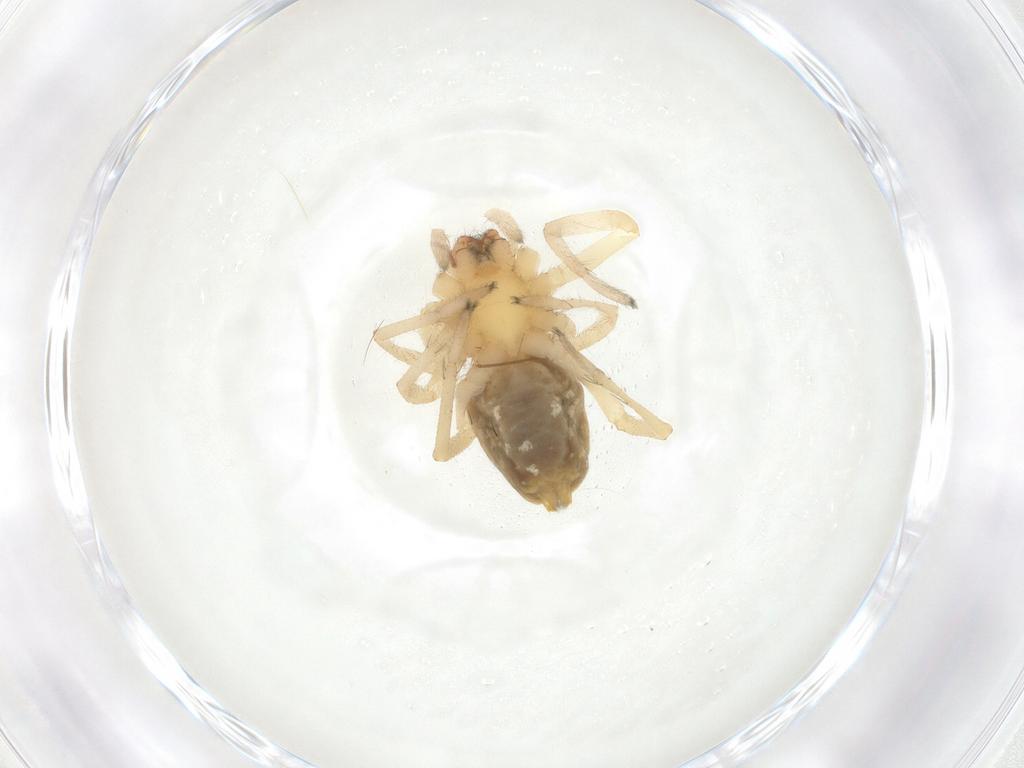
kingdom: Animalia
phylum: Arthropoda
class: Arachnida
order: Araneae
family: Cheiracanthiidae
